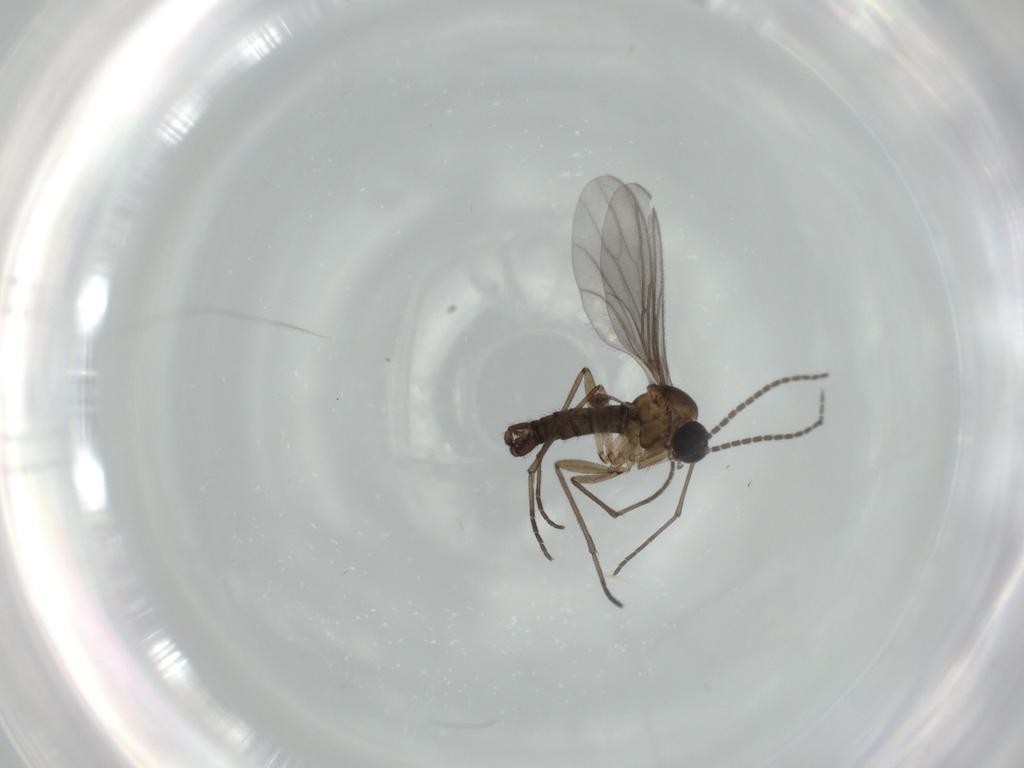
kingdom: Animalia
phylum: Arthropoda
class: Insecta
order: Diptera
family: Sciaridae
